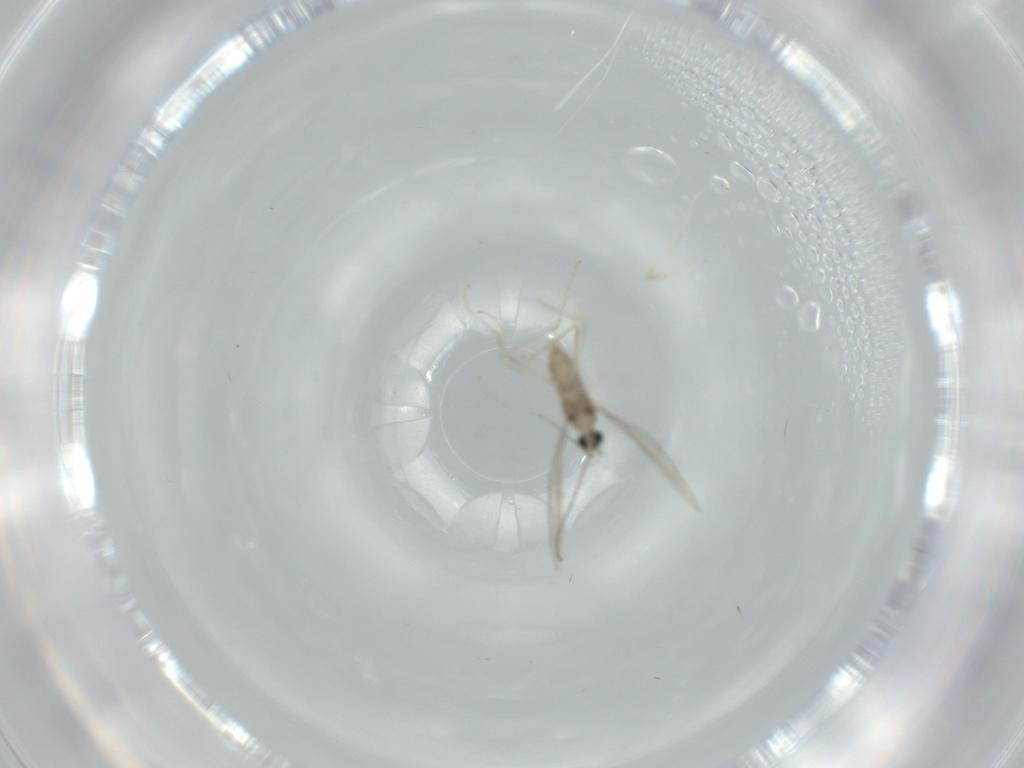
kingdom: Animalia
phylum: Arthropoda
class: Insecta
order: Diptera
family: Cecidomyiidae
